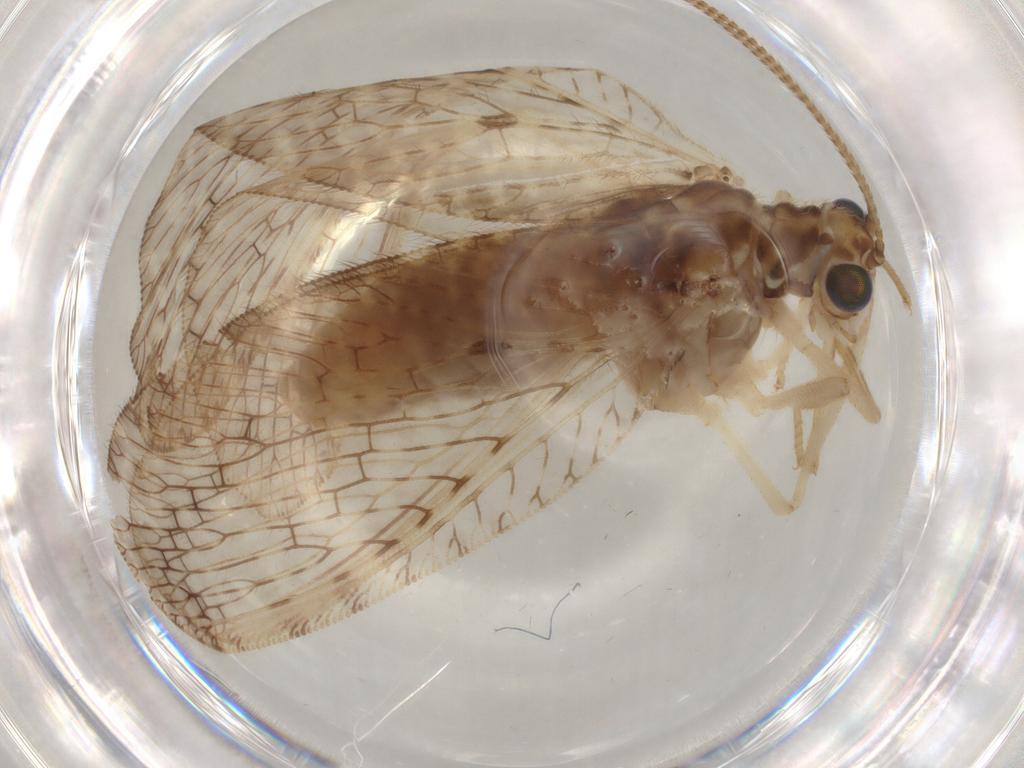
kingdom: Animalia
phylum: Arthropoda
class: Insecta
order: Neuroptera
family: Hemerobiidae
